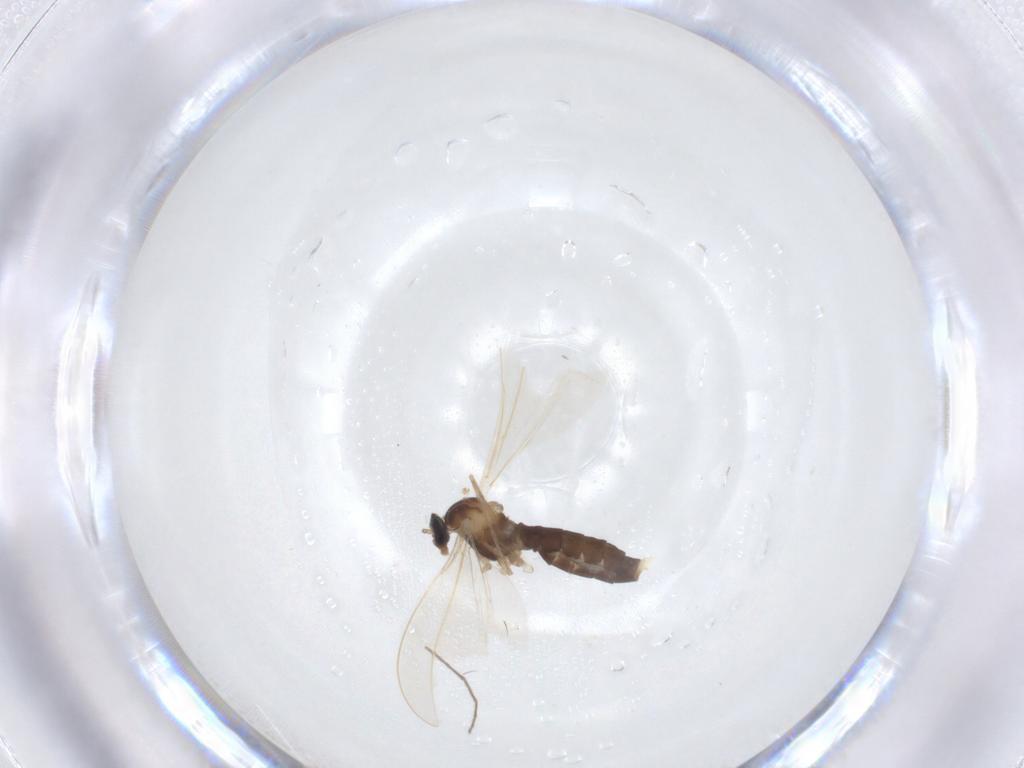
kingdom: Animalia
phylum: Arthropoda
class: Insecta
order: Diptera
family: Cecidomyiidae
